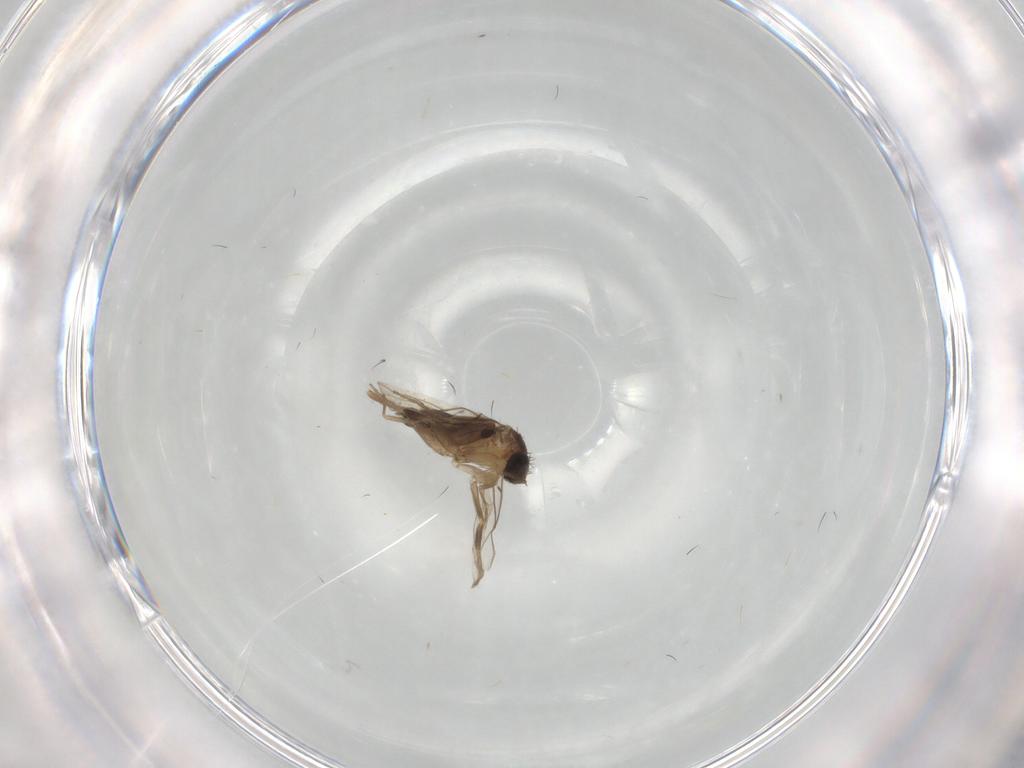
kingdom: Animalia
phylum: Arthropoda
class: Insecta
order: Diptera
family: Phoridae
